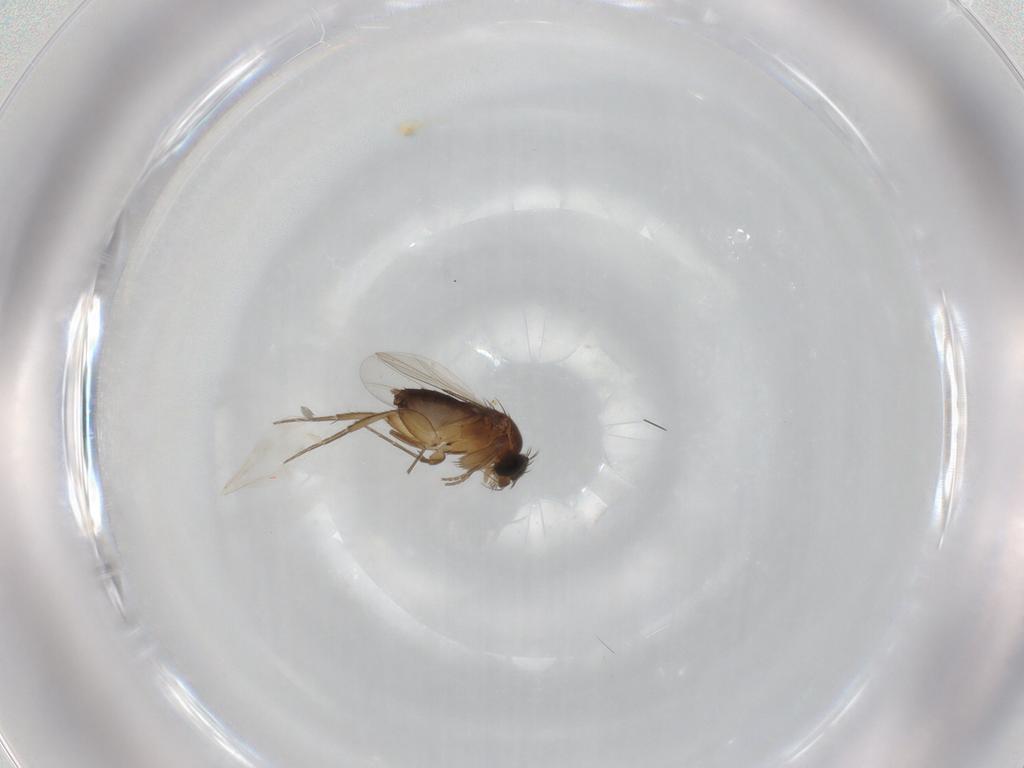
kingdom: Animalia
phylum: Arthropoda
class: Insecta
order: Diptera
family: Phoridae
